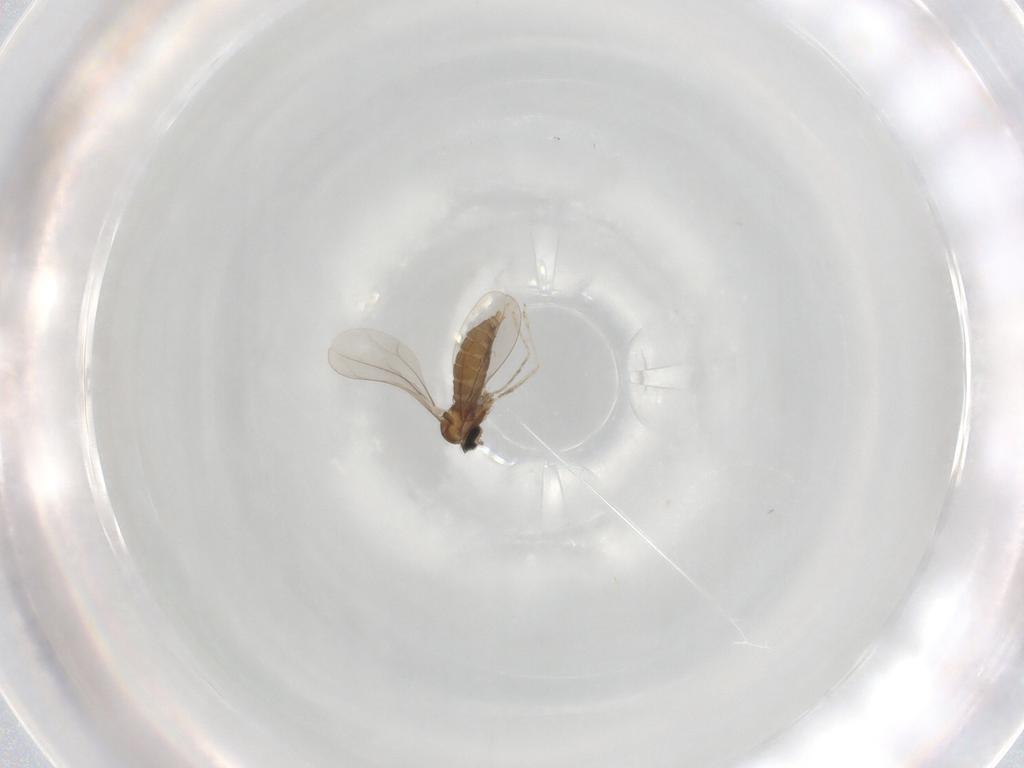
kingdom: Animalia
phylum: Arthropoda
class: Insecta
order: Diptera
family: Cecidomyiidae
